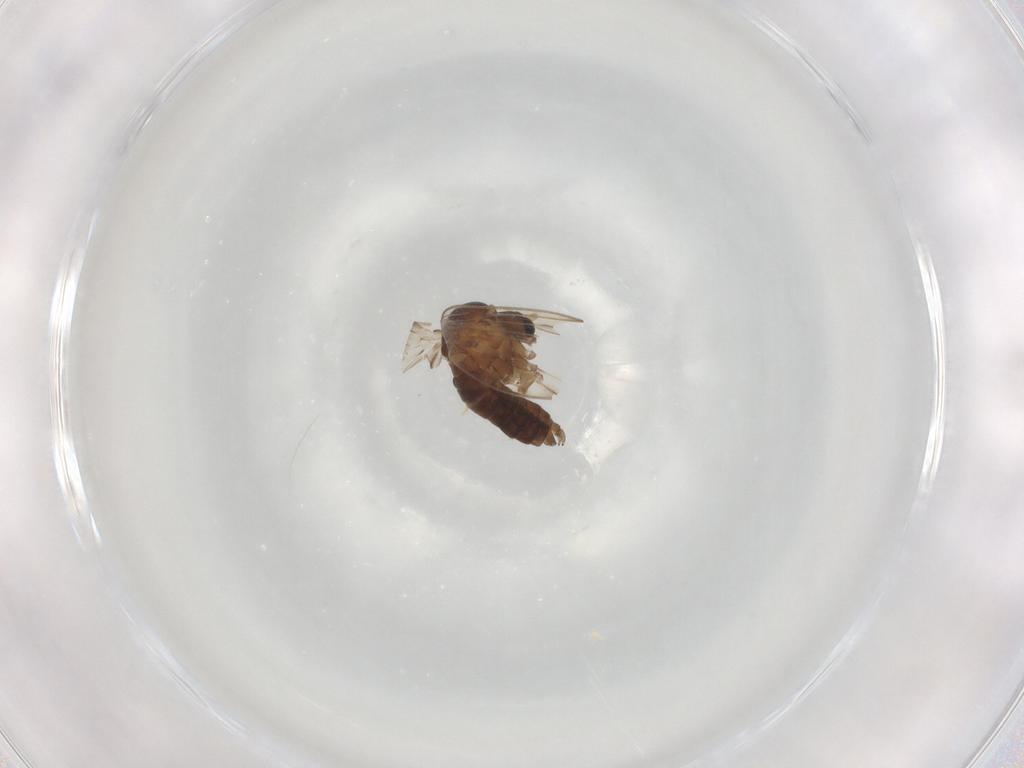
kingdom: Animalia
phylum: Arthropoda
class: Insecta
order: Diptera
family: Psychodidae
